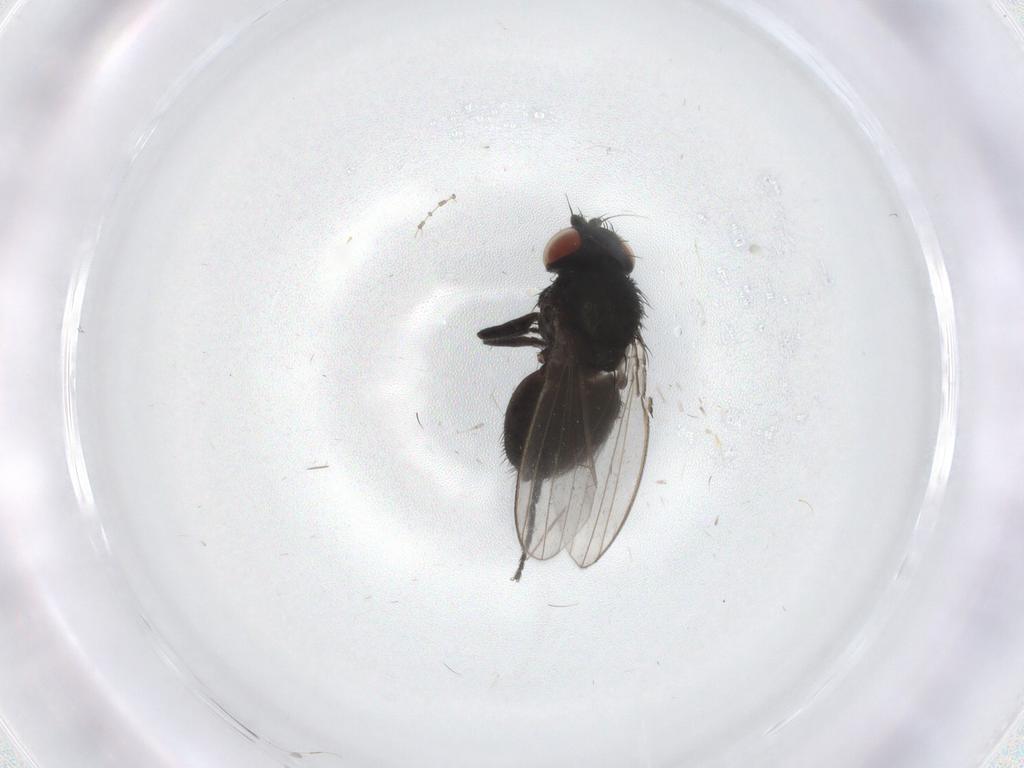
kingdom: Animalia
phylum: Arthropoda
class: Insecta
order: Diptera
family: Milichiidae
